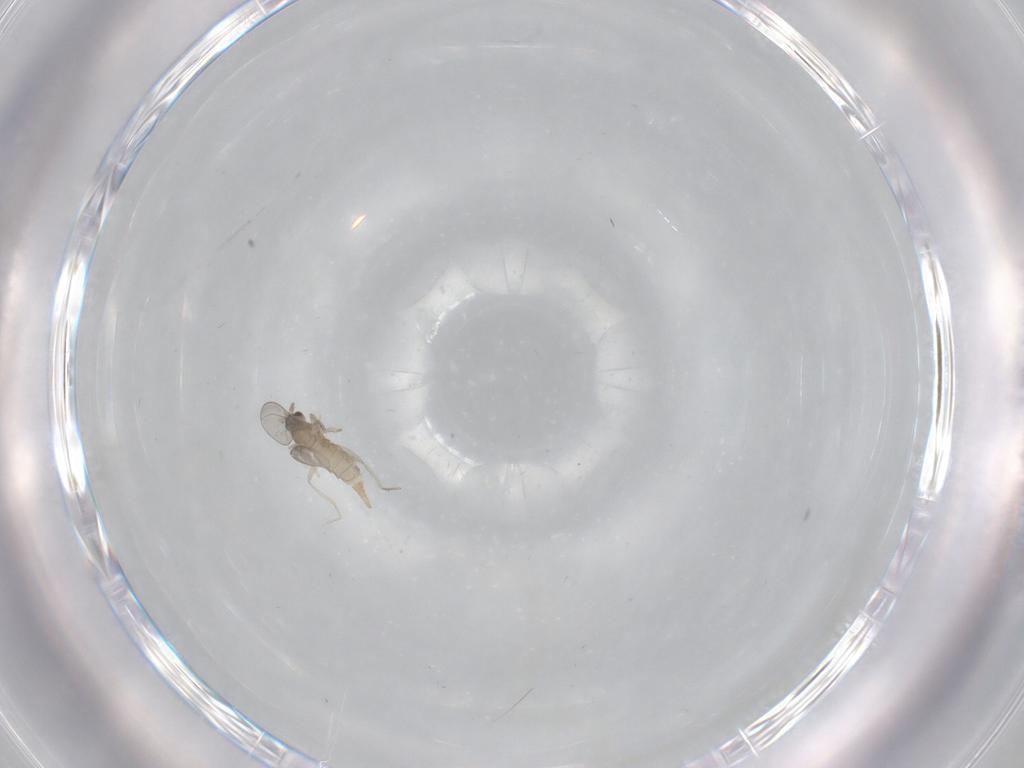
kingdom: Animalia
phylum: Arthropoda
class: Insecta
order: Diptera
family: Cecidomyiidae
